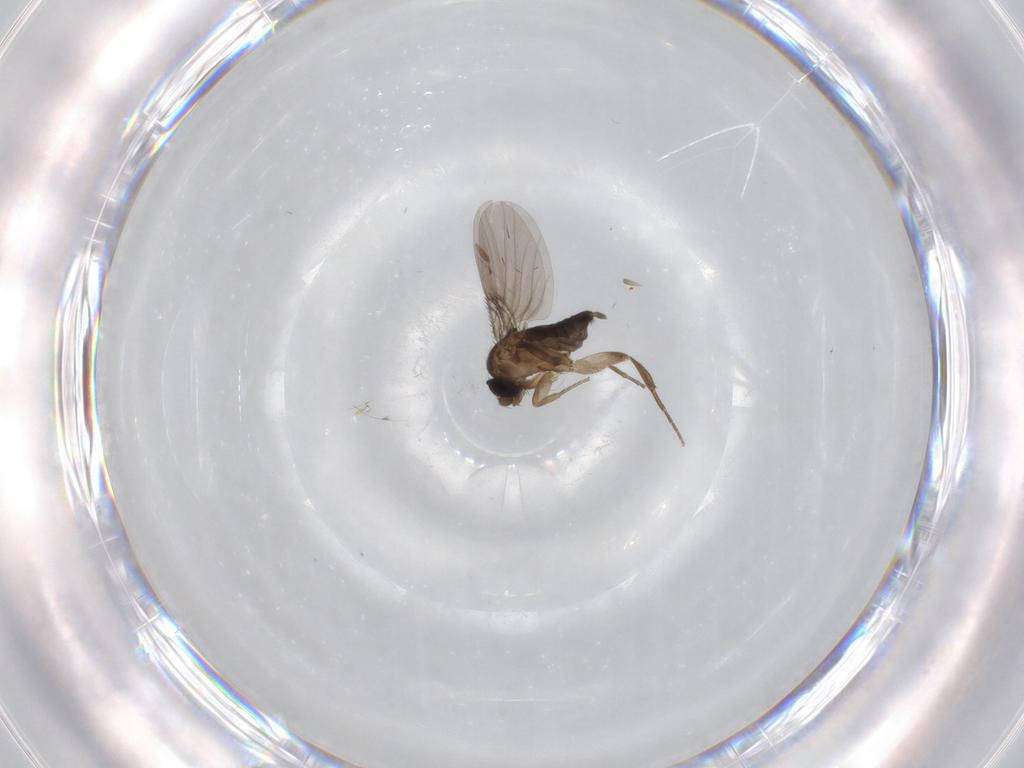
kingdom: Animalia
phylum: Arthropoda
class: Insecta
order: Diptera
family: Phoridae
